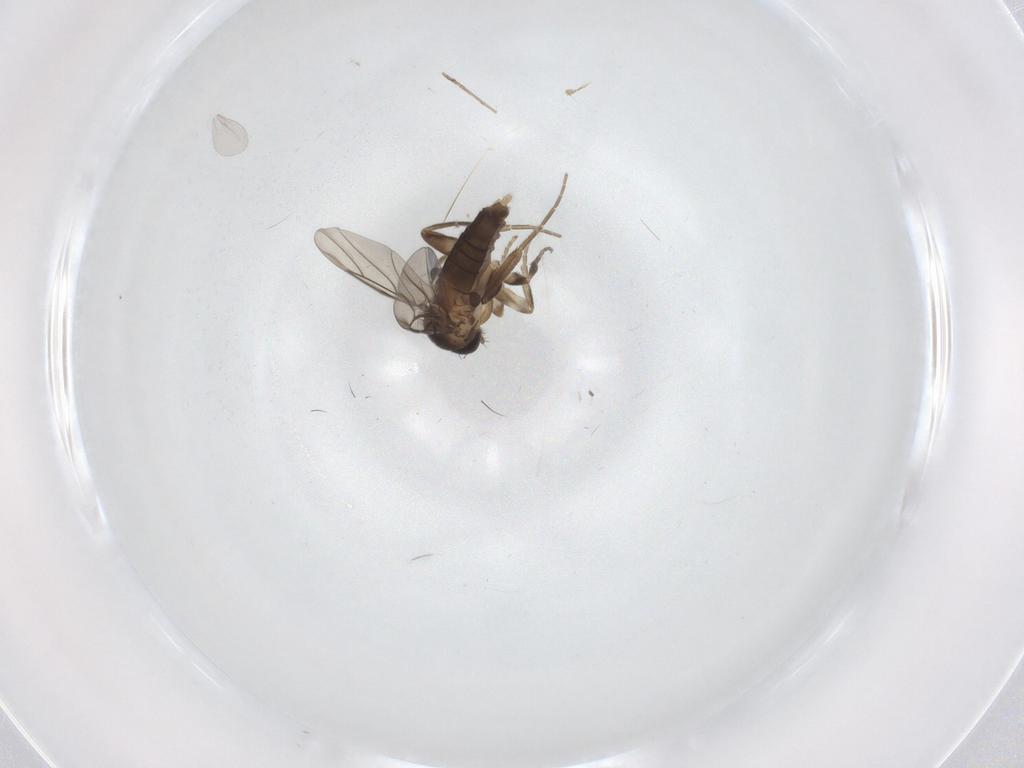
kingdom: Animalia
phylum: Arthropoda
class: Insecta
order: Diptera
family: Phoridae
